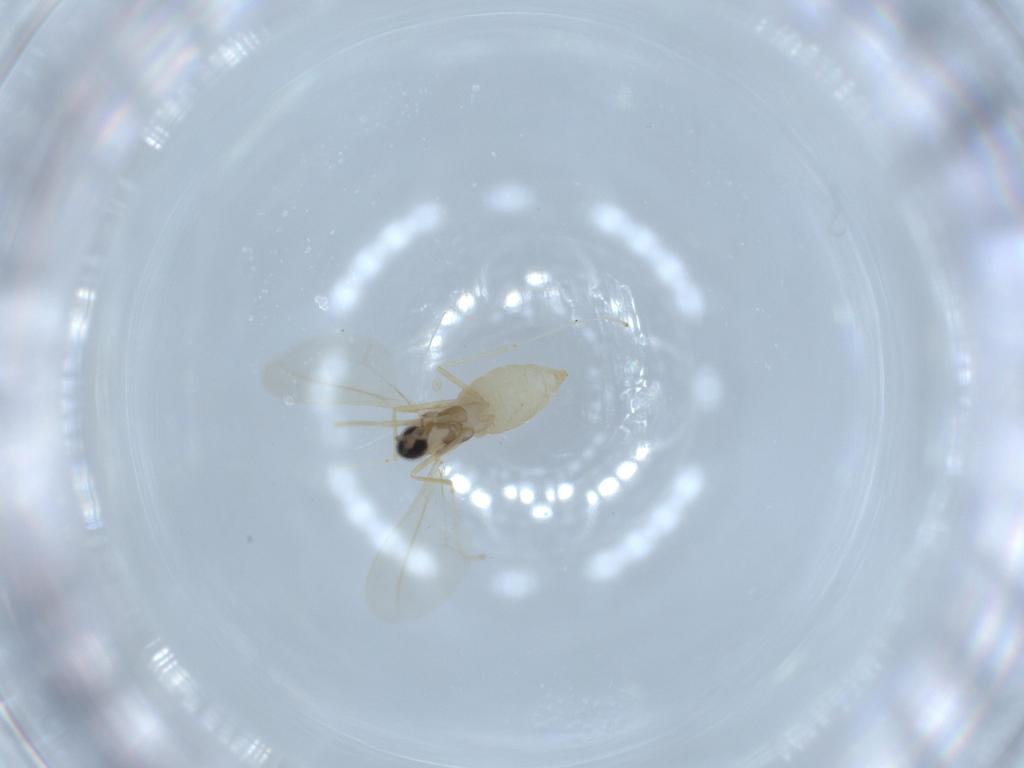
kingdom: Animalia
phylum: Arthropoda
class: Insecta
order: Diptera
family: Cecidomyiidae
